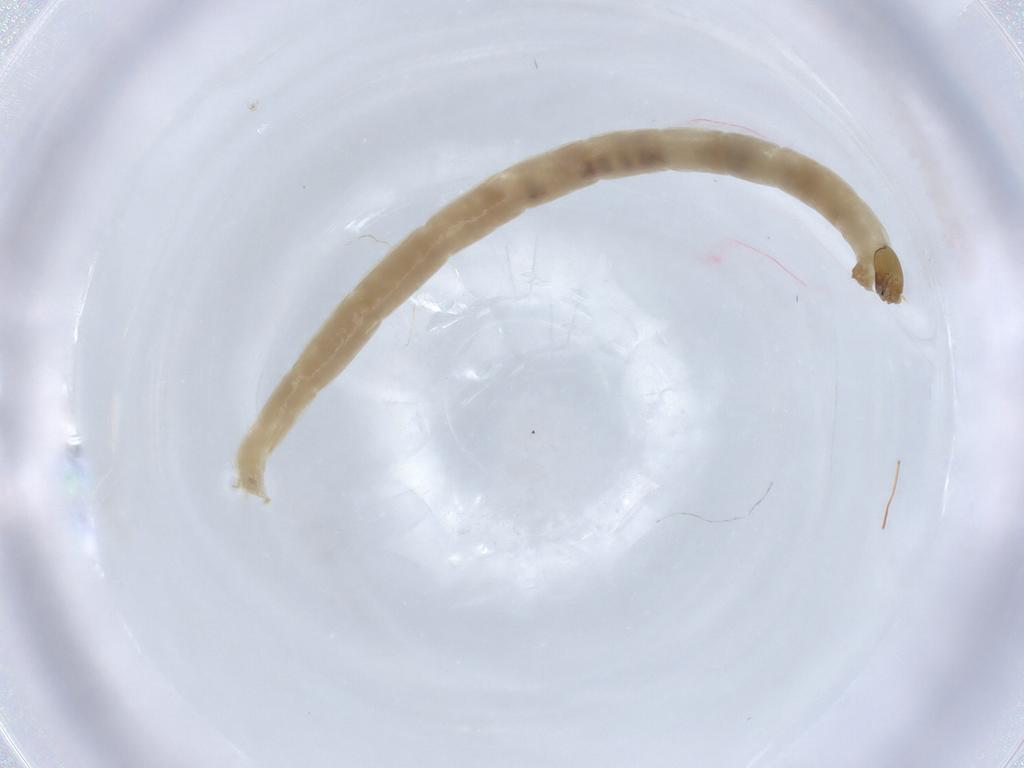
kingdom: Animalia
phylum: Arthropoda
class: Insecta
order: Diptera
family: Chironomidae
